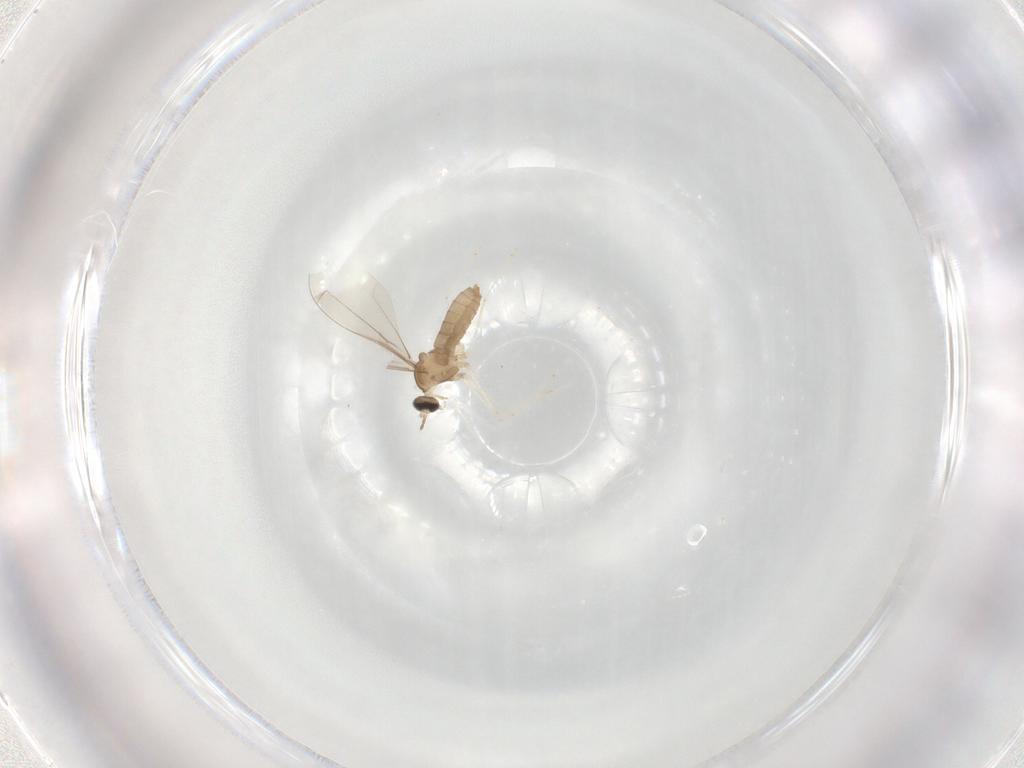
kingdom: Animalia
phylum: Arthropoda
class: Insecta
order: Diptera
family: Cecidomyiidae
